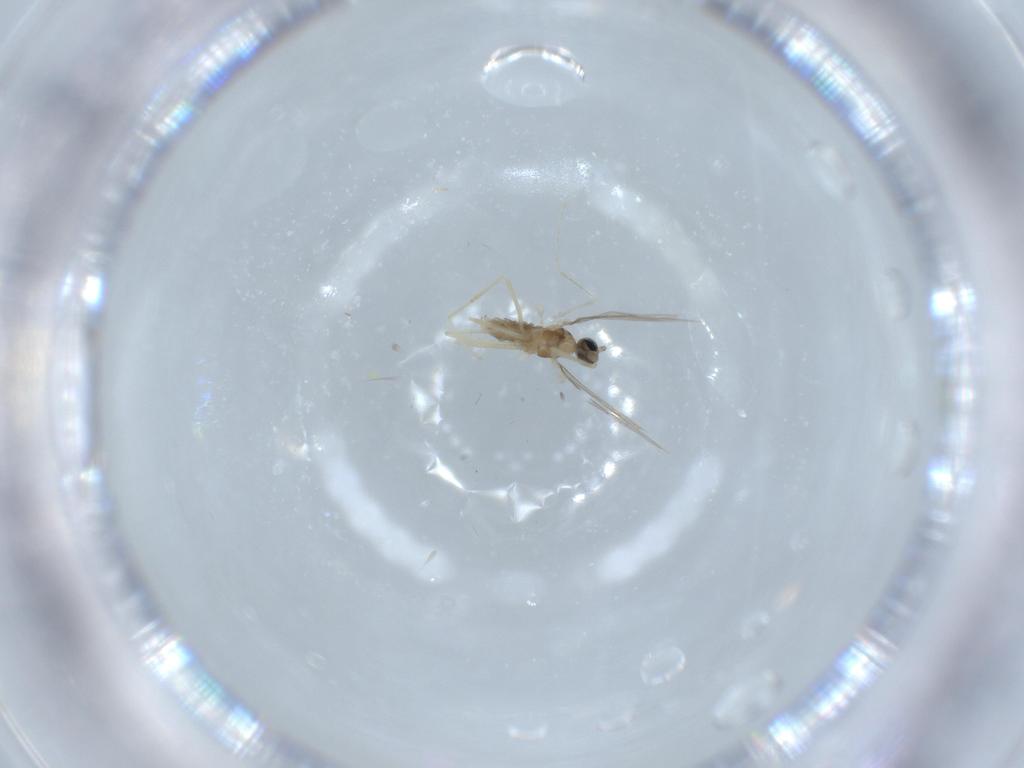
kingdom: Animalia
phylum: Arthropoda
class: Insecta
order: Diptera
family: Cecidomyiidae
